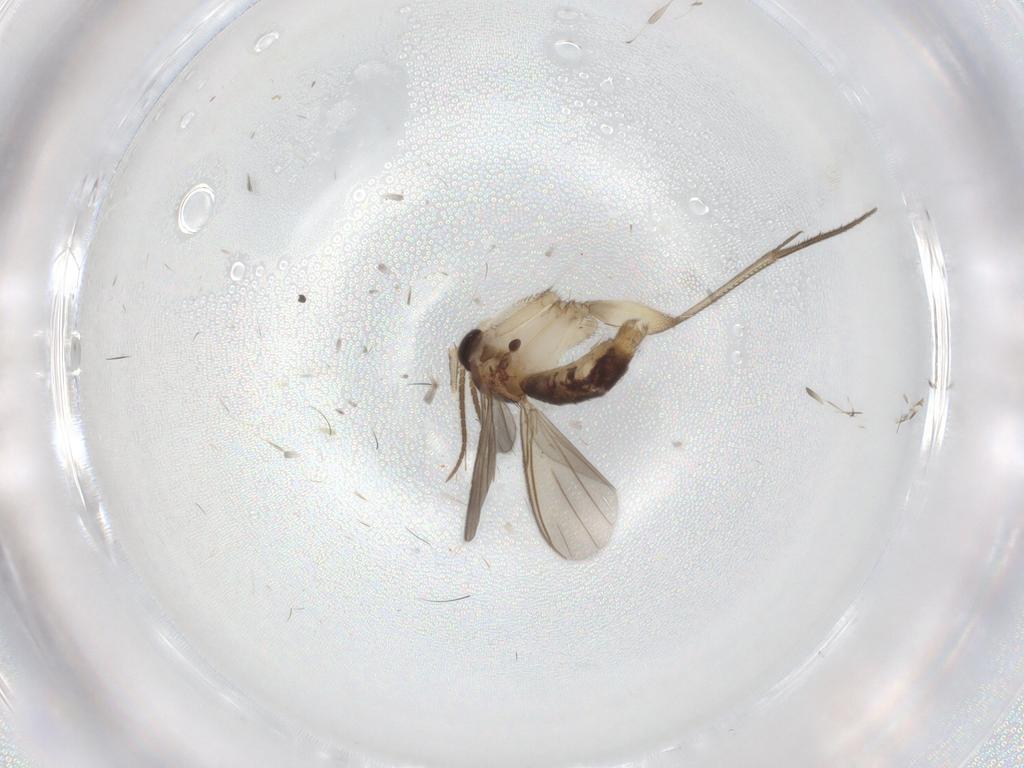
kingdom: Animalia
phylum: Arthropoda
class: Insecta
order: Diptera
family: Mycetophilidae
